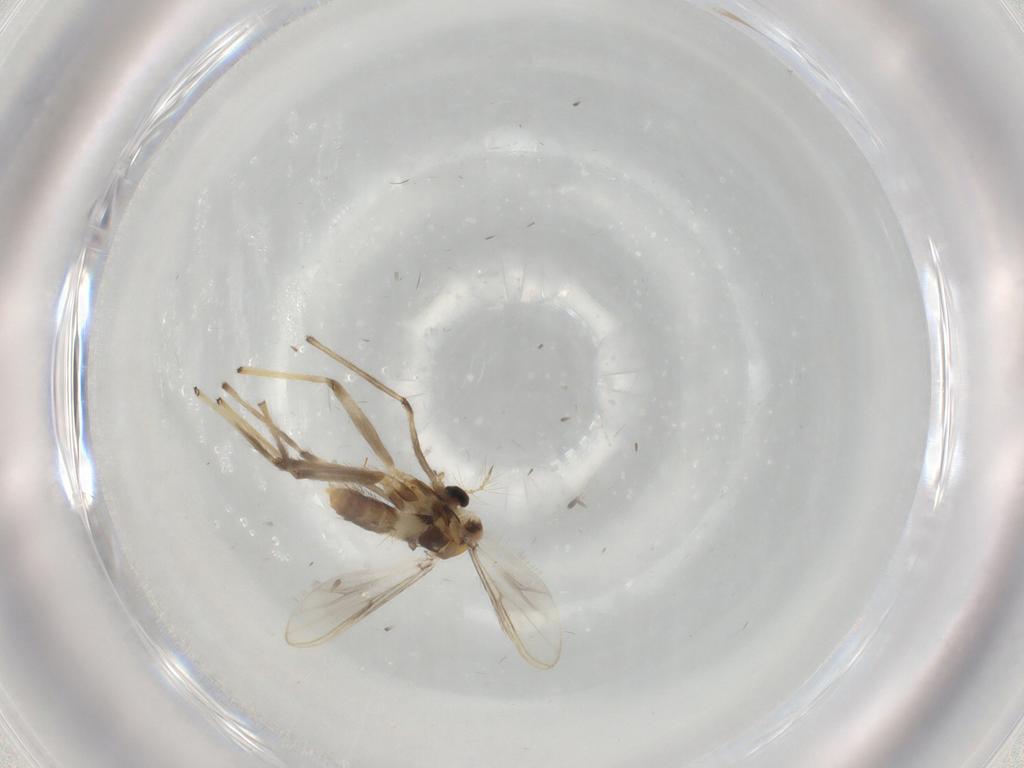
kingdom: Animalia
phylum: Arthropoda
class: Insecta
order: Diptera
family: Chironomidae
